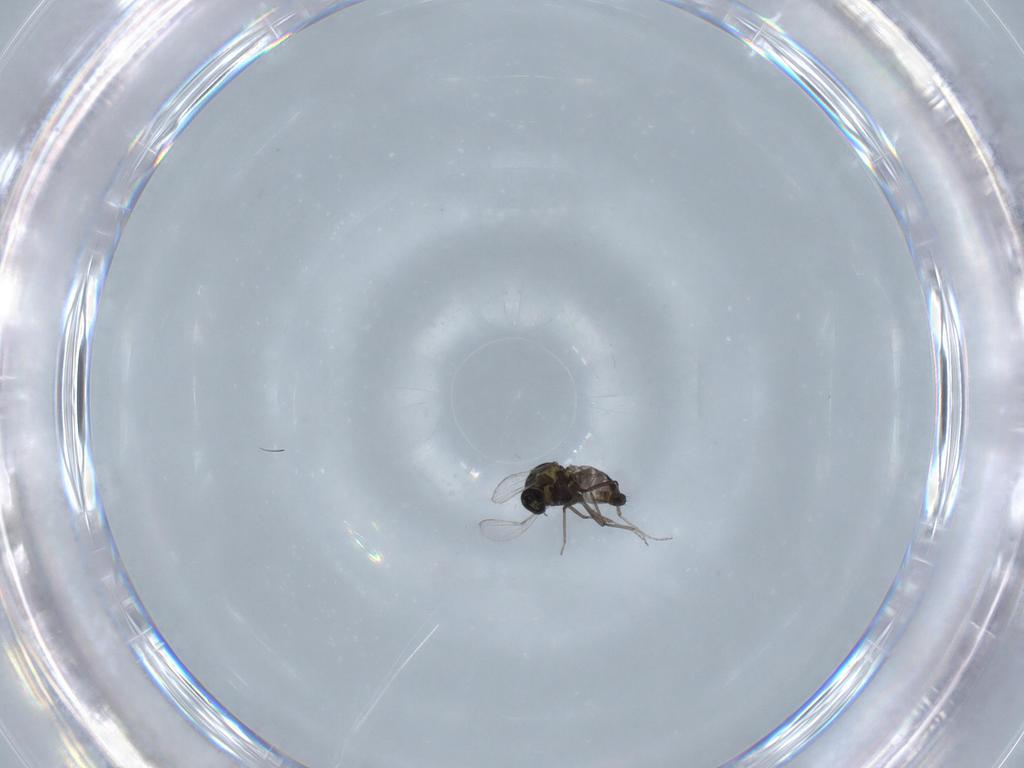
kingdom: Animalia
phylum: Arthropoda
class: Insecta
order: Diptera
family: Ceratopogonidae
